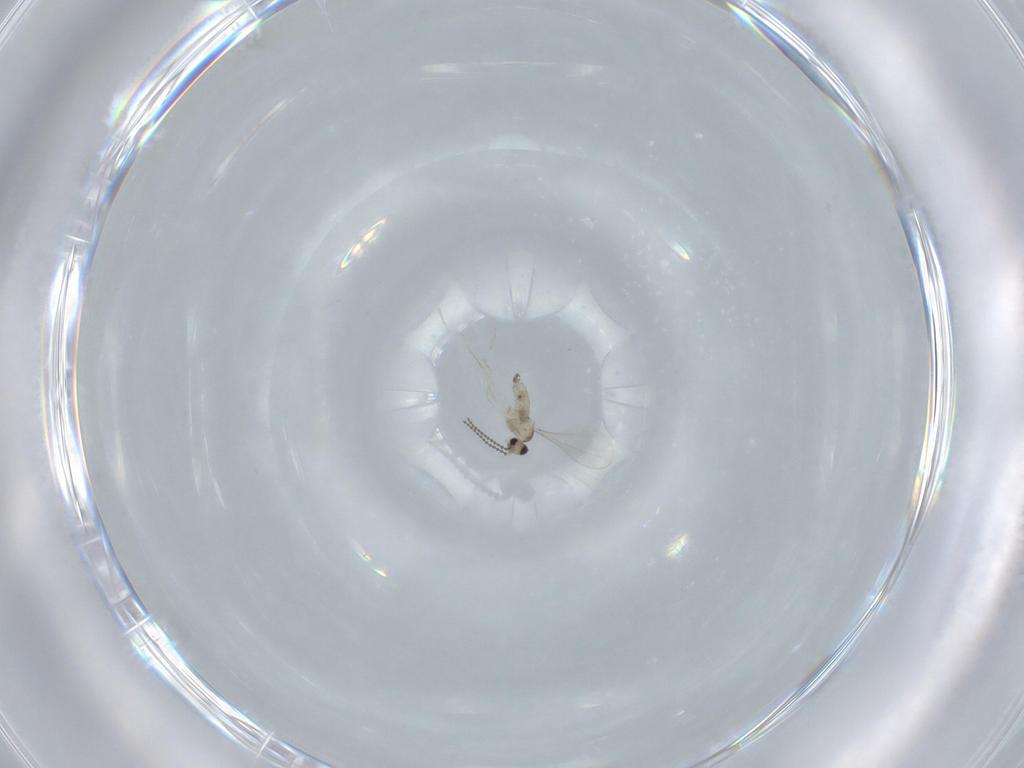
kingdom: Animalia
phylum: Arthropoda
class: Insecta
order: Diptera
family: Cecidomyiidae
